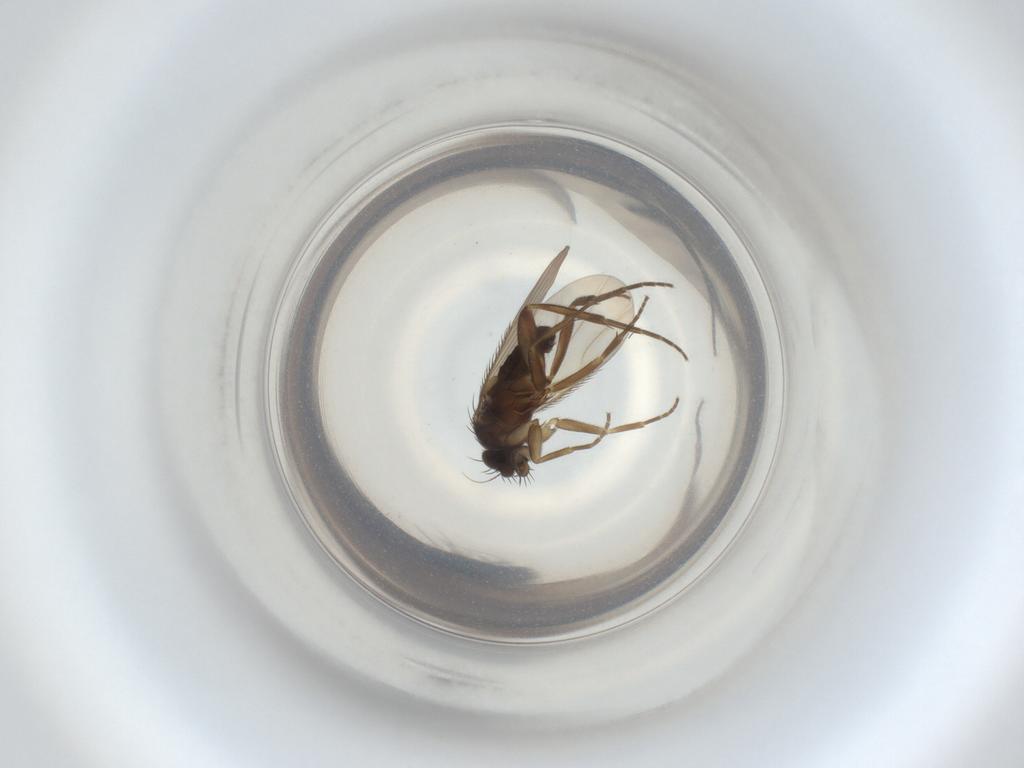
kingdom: Animalia
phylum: Arthropoda
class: Insecta
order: Diptera
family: Phoridae
